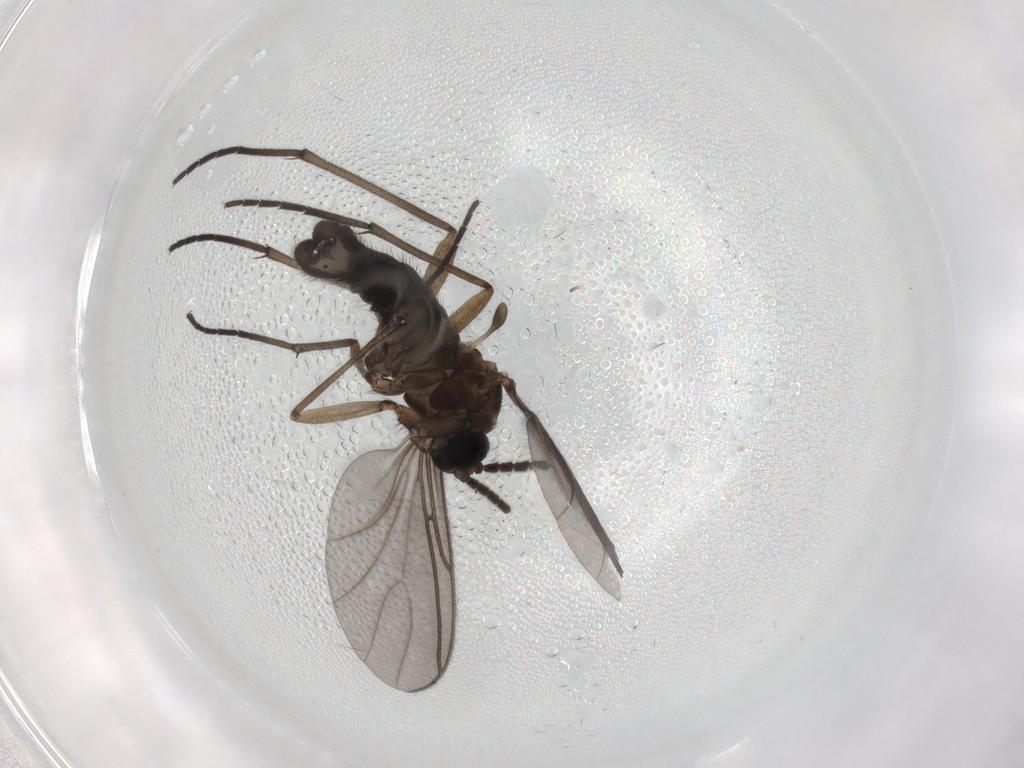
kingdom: Animalia
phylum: Arthropoda
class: Insecta
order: Diptera
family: Sciaridae
